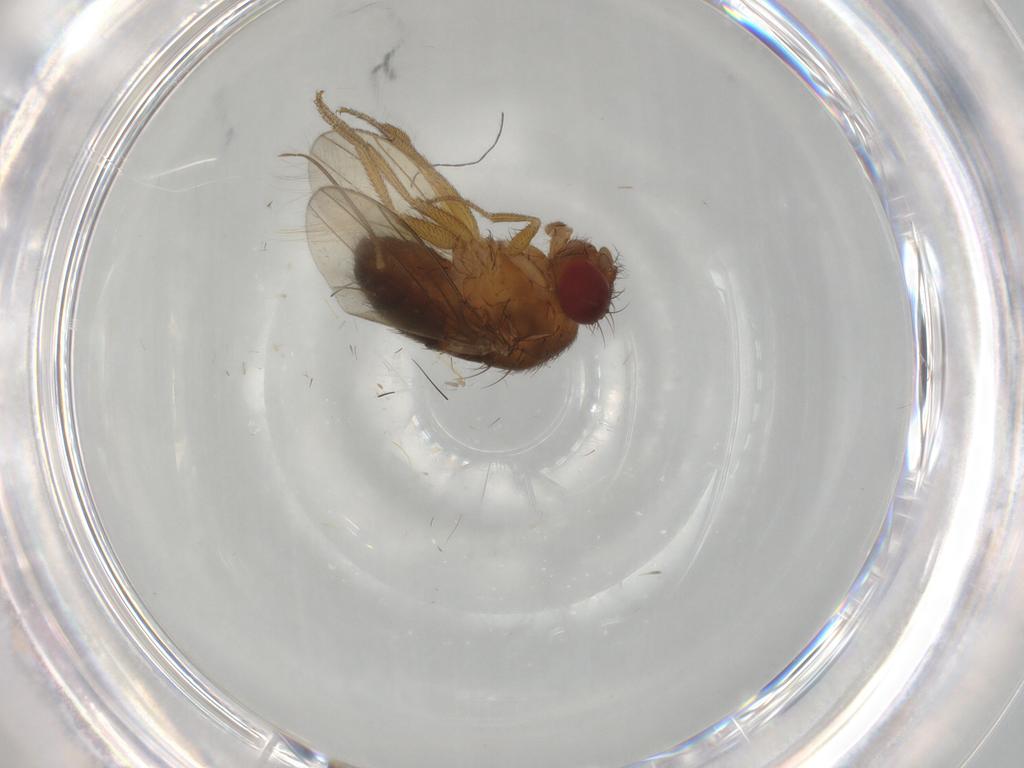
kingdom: Animalia
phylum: Arthropoda
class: Insecta
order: Diptera
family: Drosophilidae
